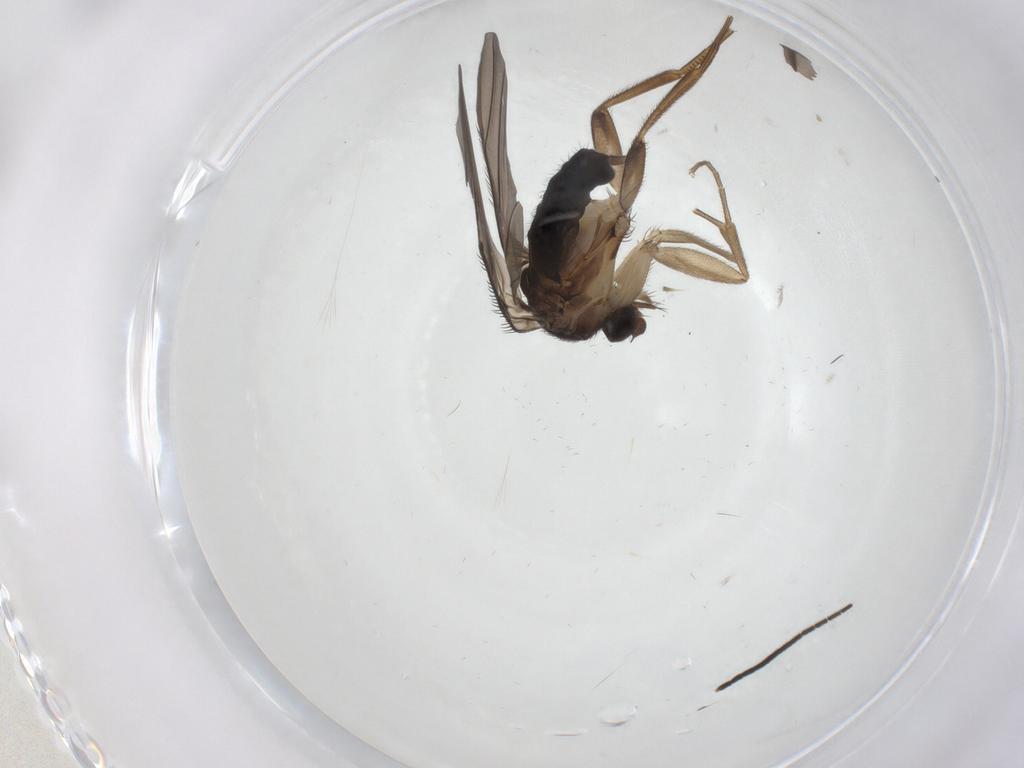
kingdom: Animalia
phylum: Arthropoda
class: Insecta
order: Diptera
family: Phoridae
